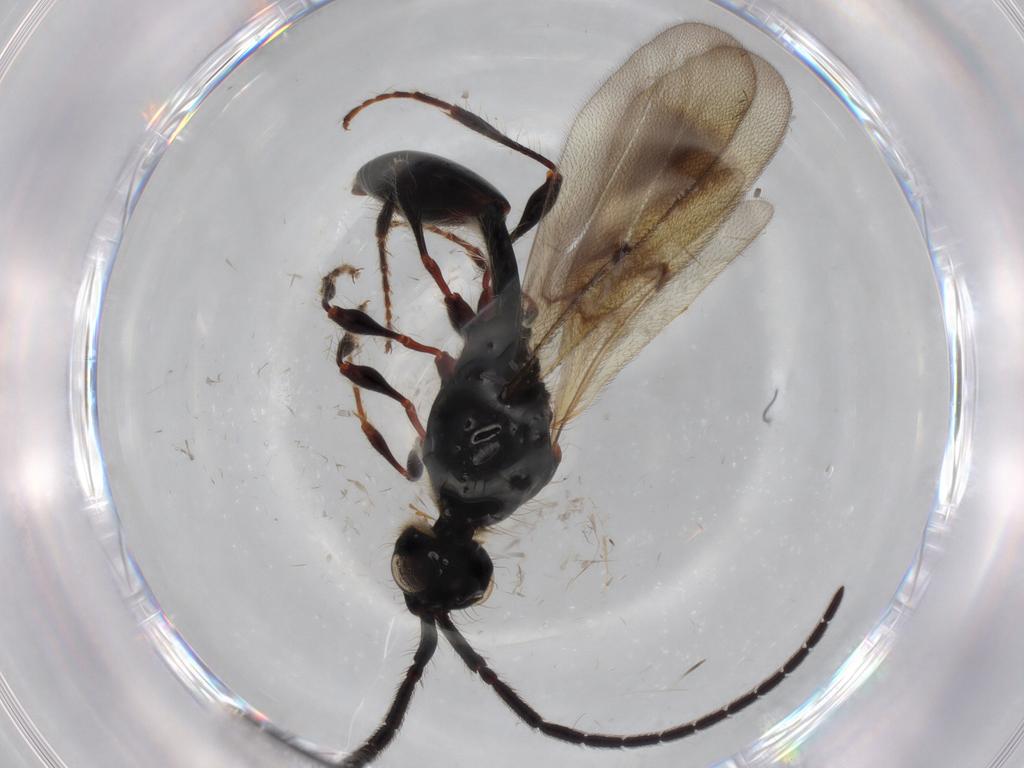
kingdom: Animalia
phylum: Arthropoda
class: Insecta
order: Hymenoptera
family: Diapriidae
